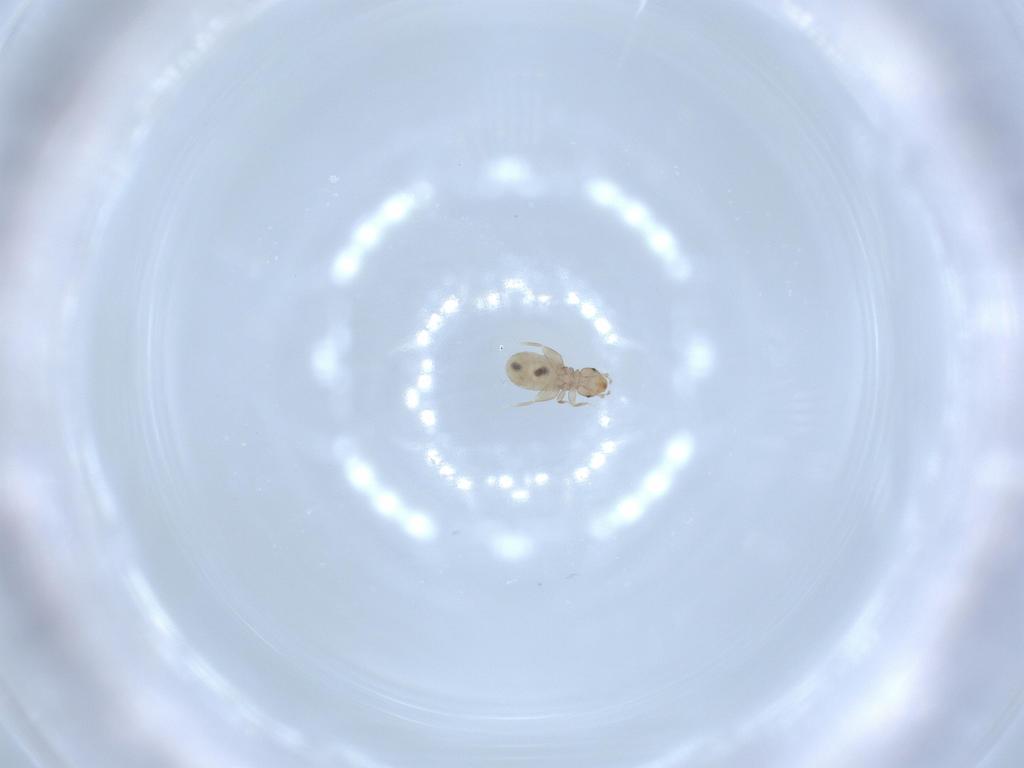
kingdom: Animalia
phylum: Arthropoda
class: Insecta
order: Psocodea
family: Liposcelididae
